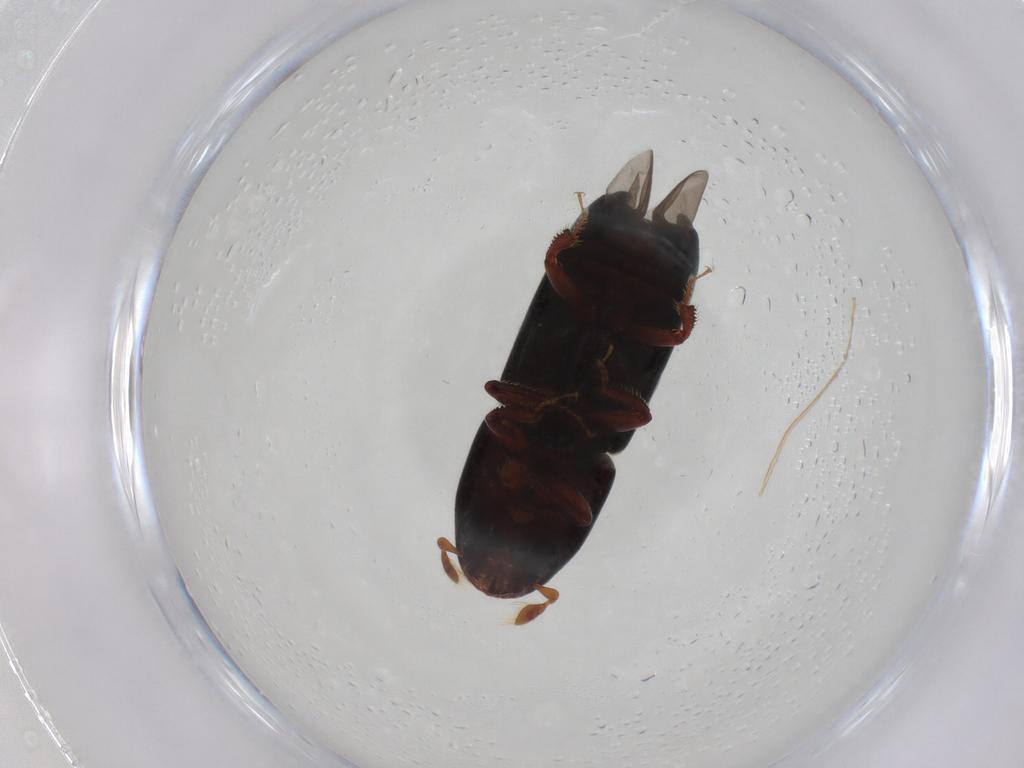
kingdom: Animalia
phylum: Arthropoda
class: Insecta
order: Coleoptera
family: Curculionidae
